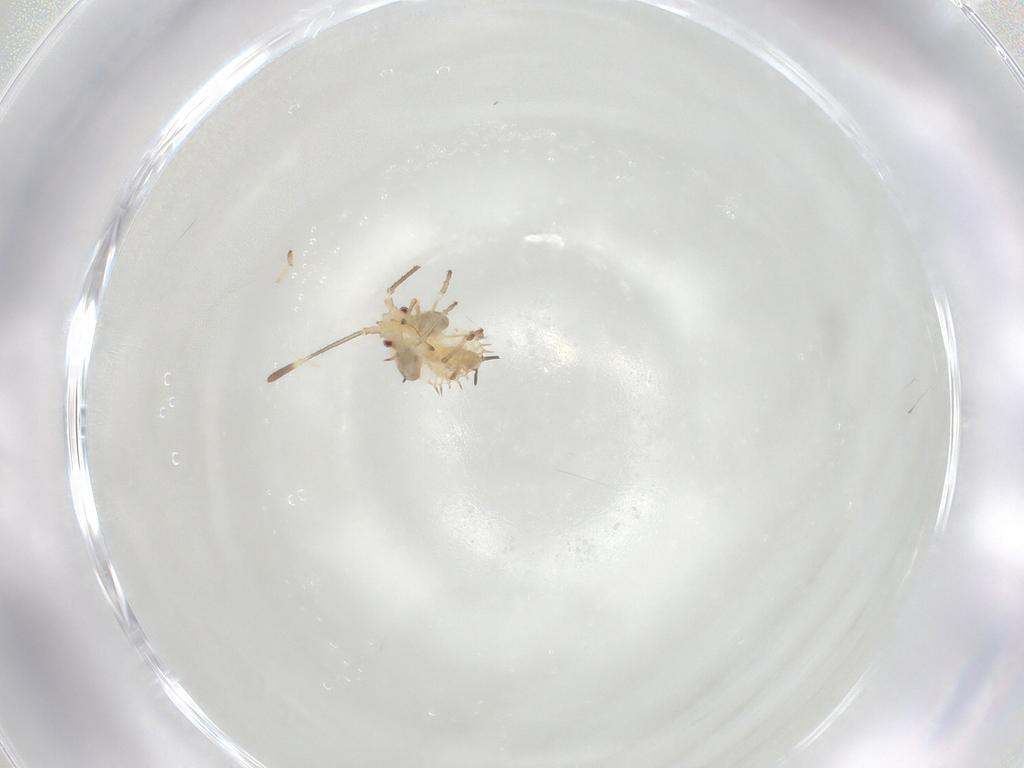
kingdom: Animalia
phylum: Arthropoda
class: Insecta
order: Hemiptera
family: Tingidae
